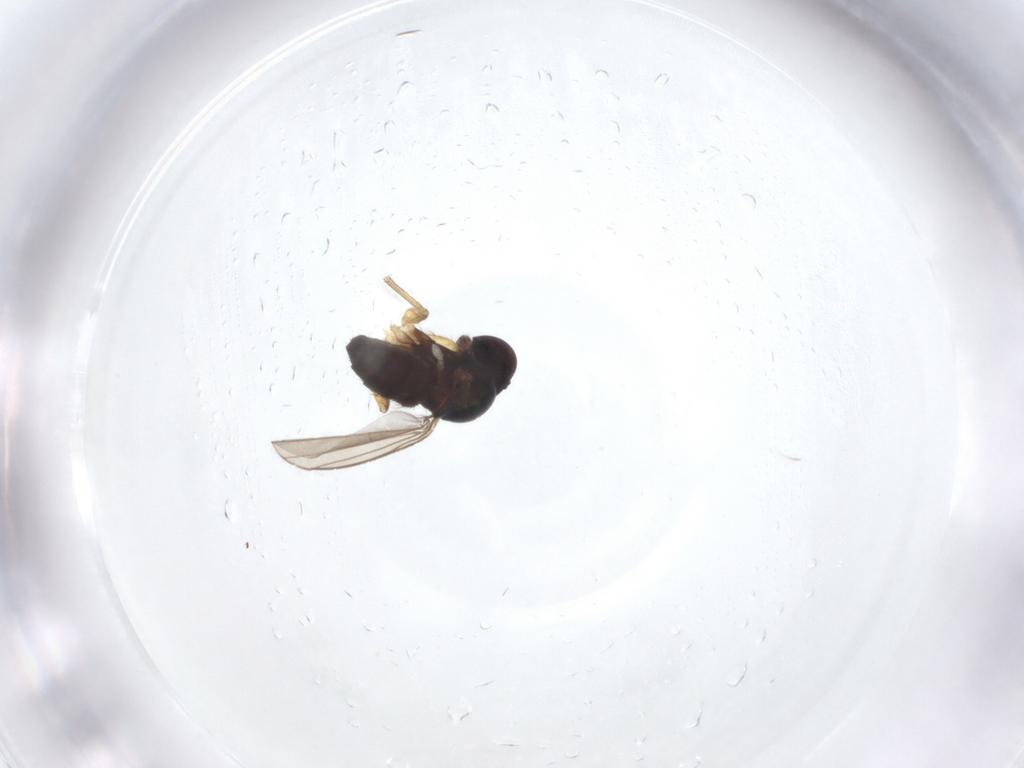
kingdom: Animalia
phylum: Arthropoda
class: Insecta
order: Diptera
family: Dolichopodidae
